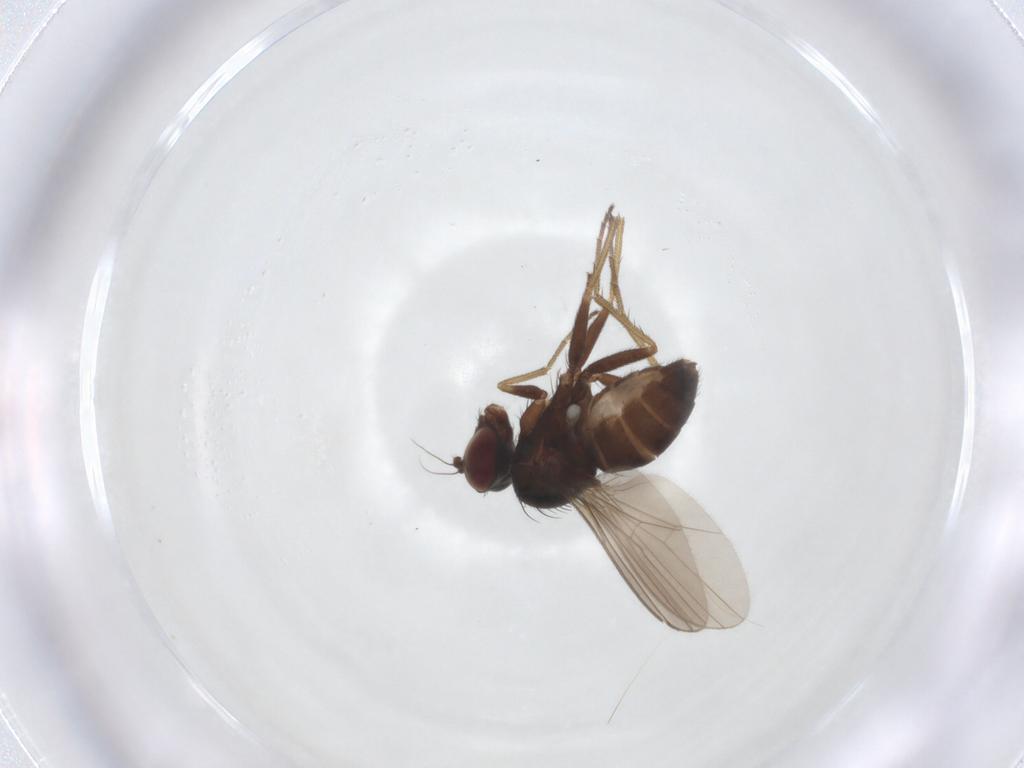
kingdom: Animalia
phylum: Arthropoda
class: Insecta
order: Diptera
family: Dolichopodidae
